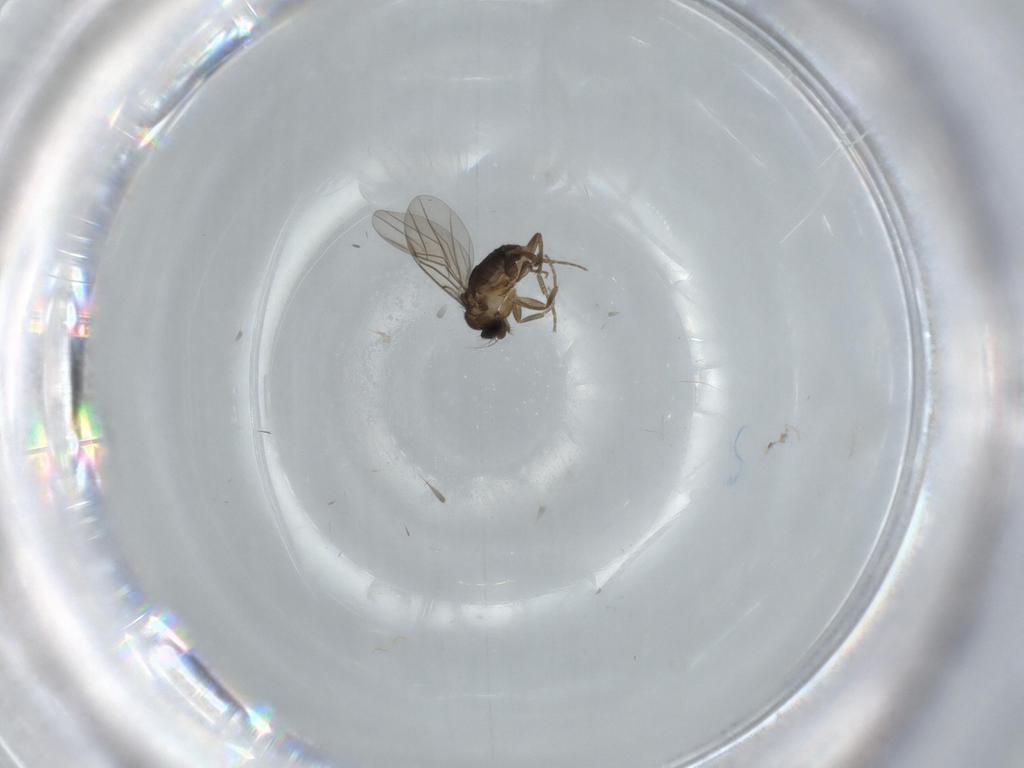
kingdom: Animalia
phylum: Arthropoda
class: Insecta
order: Diptera
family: Phoridae
